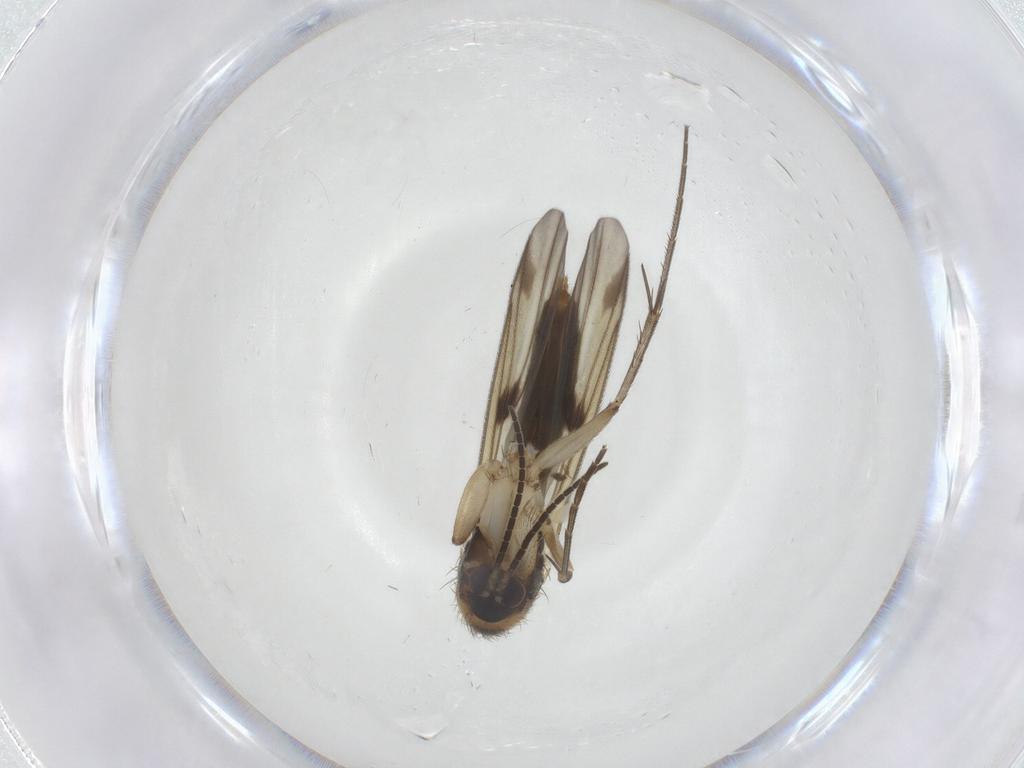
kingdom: Animalia
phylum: Arthropoda
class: Insecta
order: Diptera
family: Mycetophilidae
